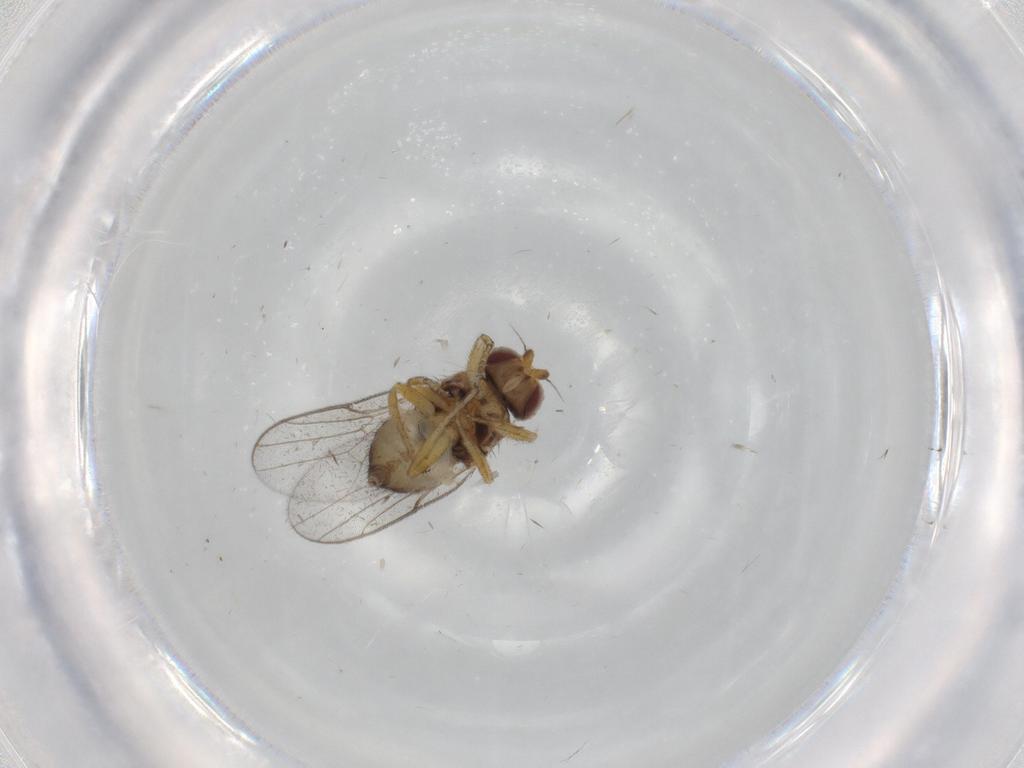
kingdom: Animalia
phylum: Arthropoda
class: Insecta
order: Diptera
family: Chloropidae
